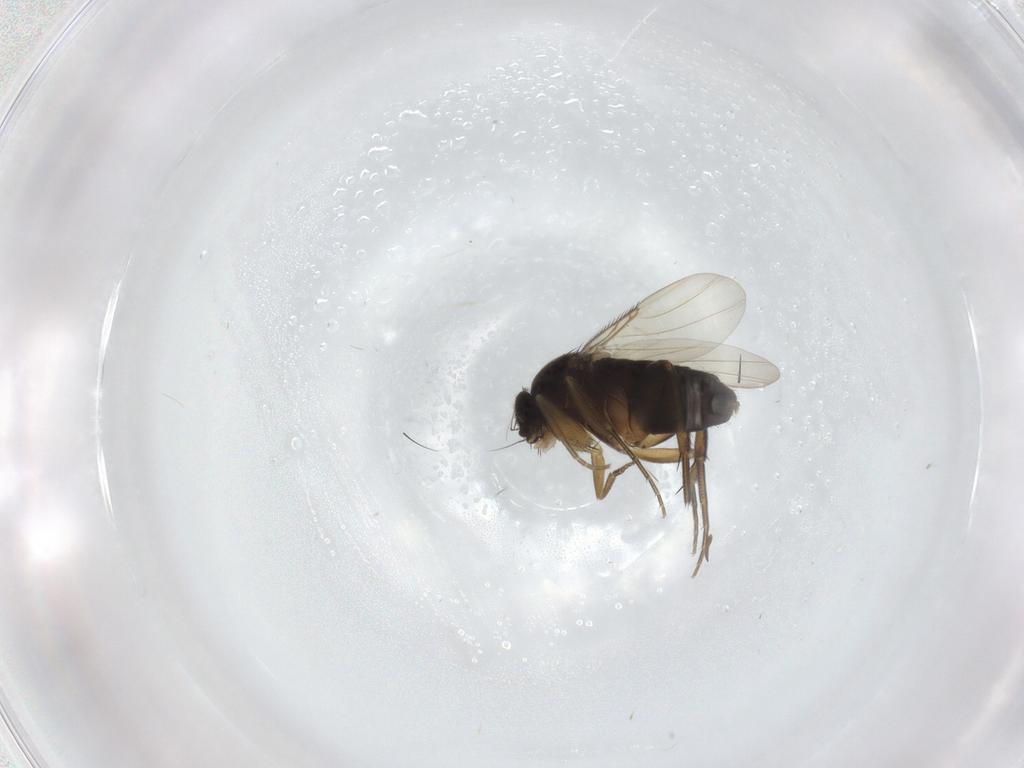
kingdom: Animalia
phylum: Arthropoda
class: Insecta
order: Diptera
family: Phoridae
